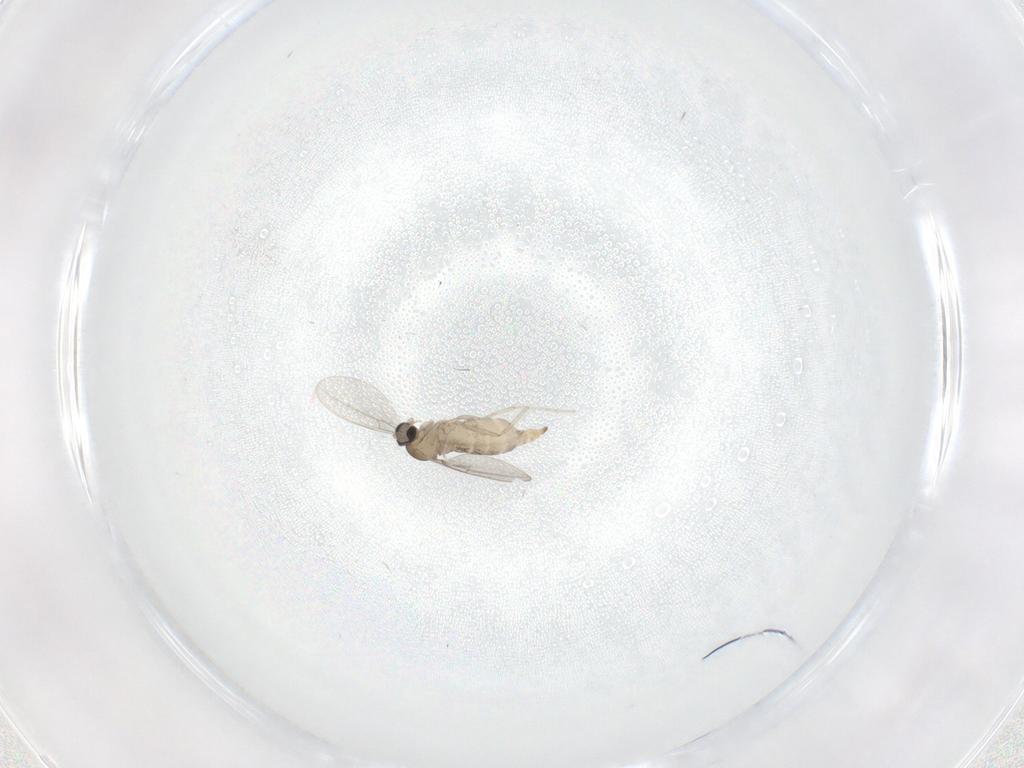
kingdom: Animalia
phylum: Arthropoda
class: Insecta
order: Diptera
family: Cecidomyiidae
